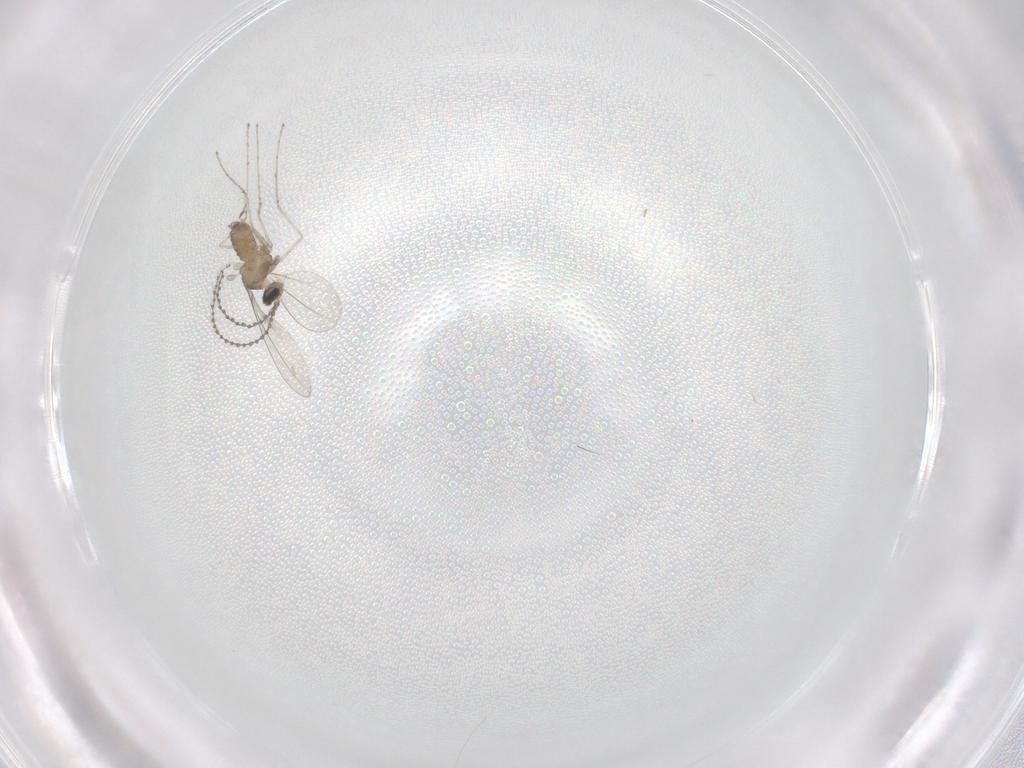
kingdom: Animalia
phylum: Arthropoda
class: Insecta
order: Diptera
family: Cecidomyiidae
